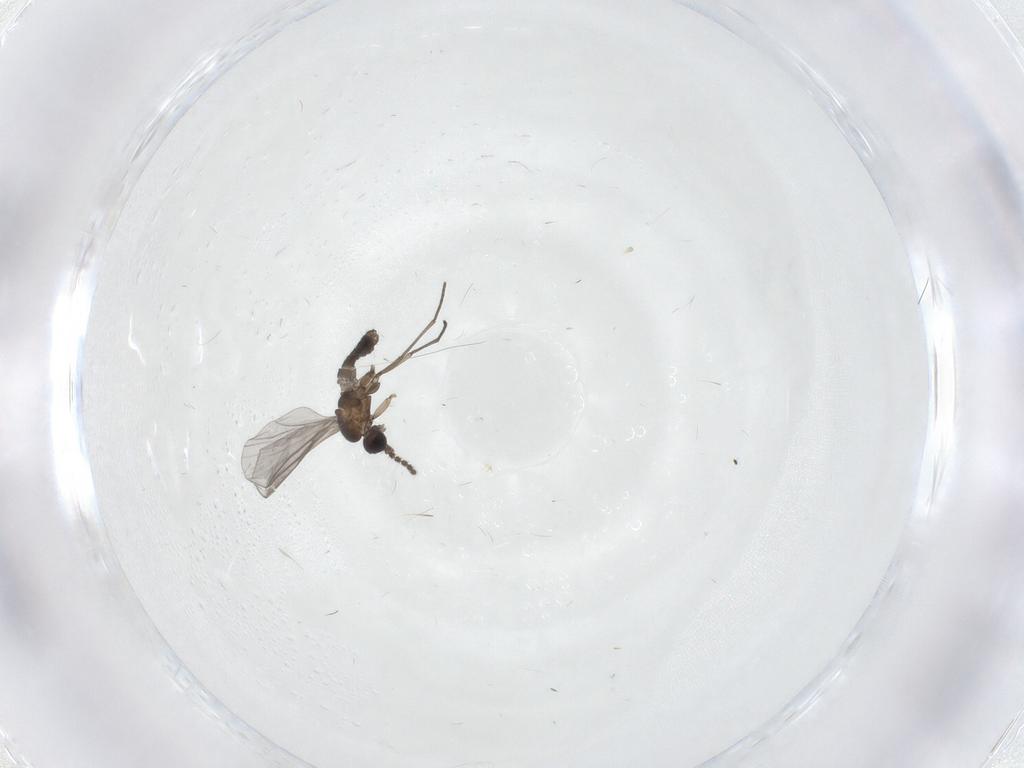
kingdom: Animalia
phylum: Arthropoda
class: Insecta
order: Diptera
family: Sciaridae
